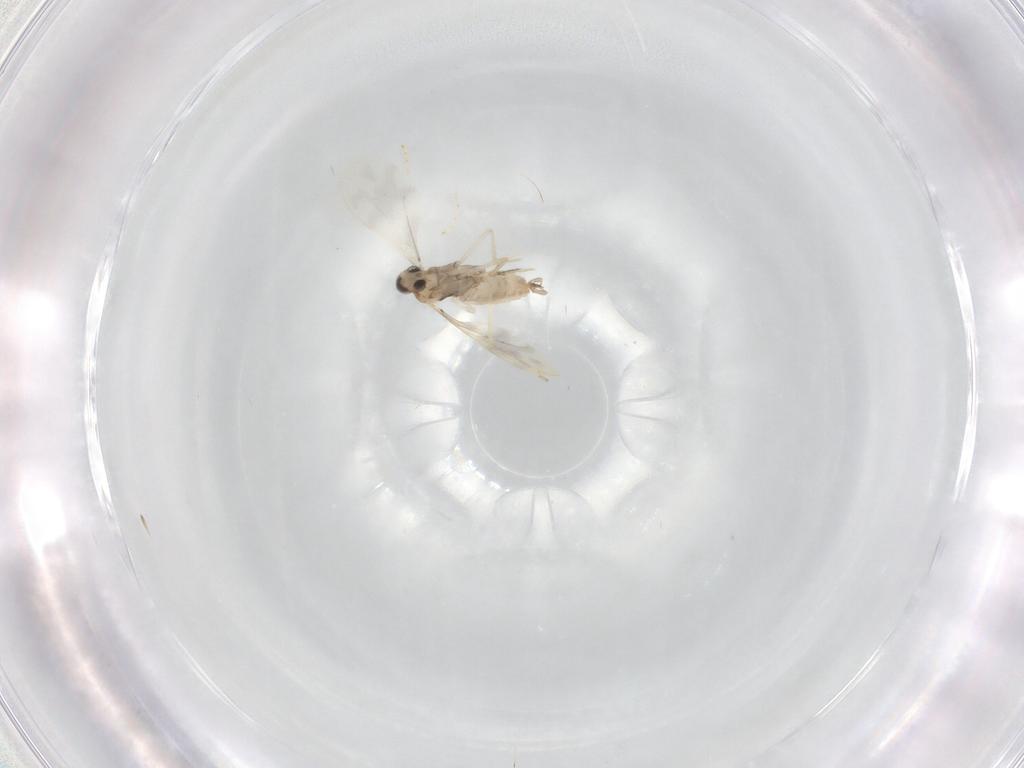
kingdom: Animalia
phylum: Arthropoda
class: Insecta
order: Diptera
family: Cecidomyiidae
